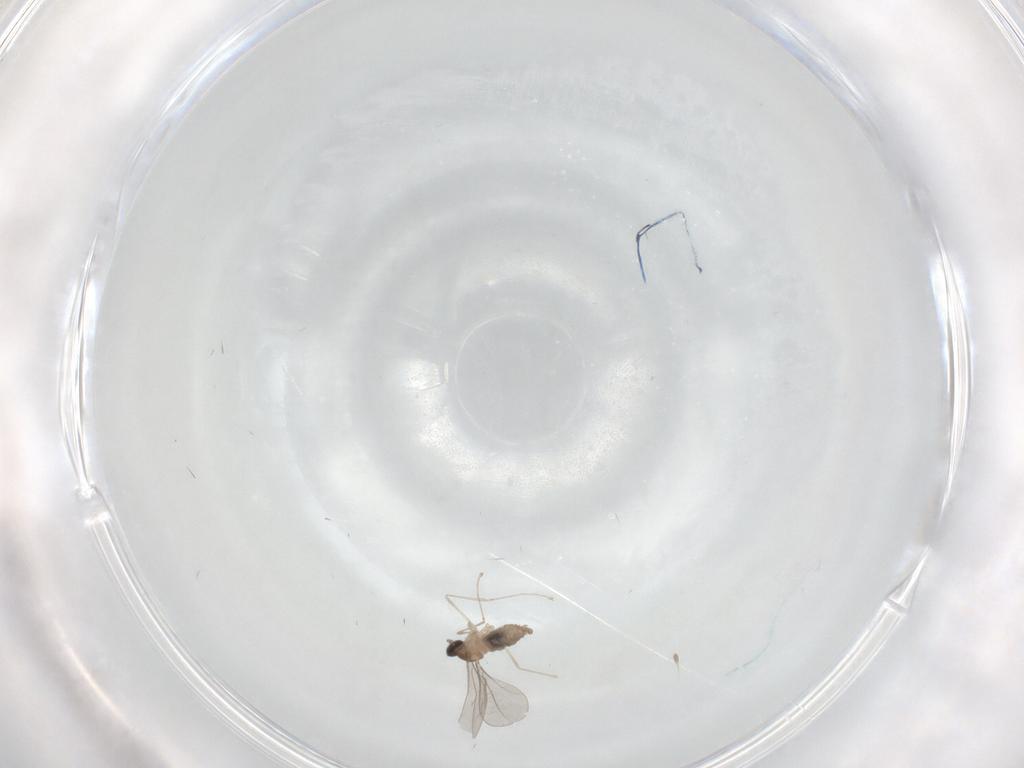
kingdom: Animalia
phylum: Arthropoda
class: Insecta
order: Diptera
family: Cecidomyiidae
